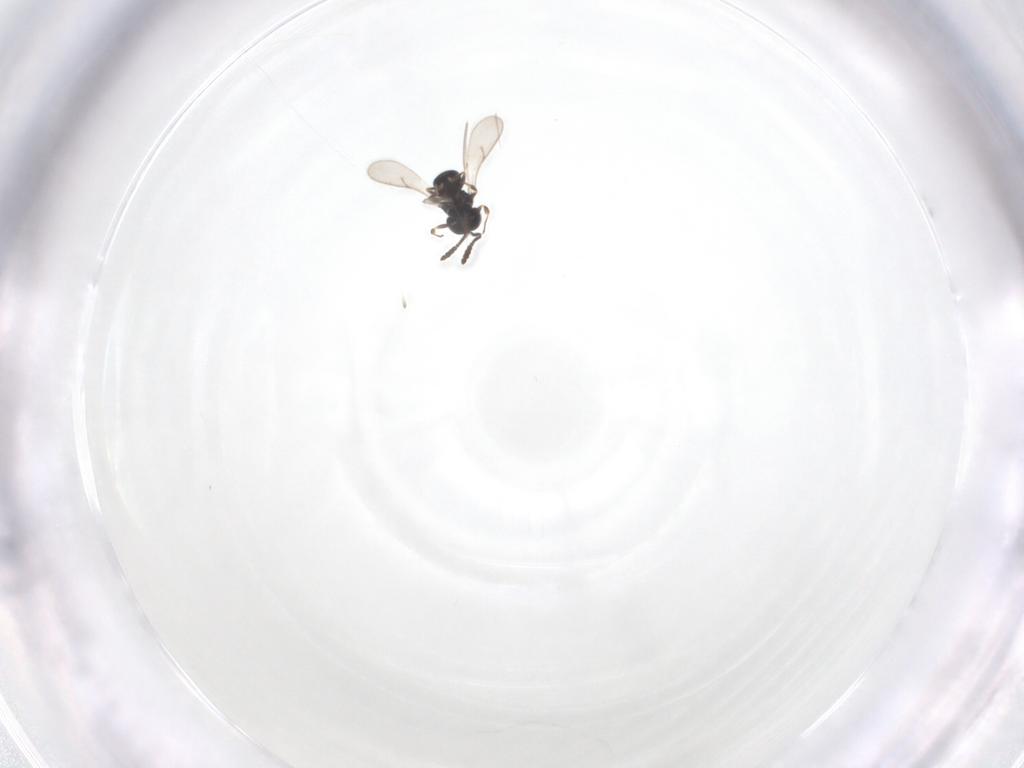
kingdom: Animalia
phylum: Arthropoda
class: Insecta
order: Hymenoptera
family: Scelionidae
